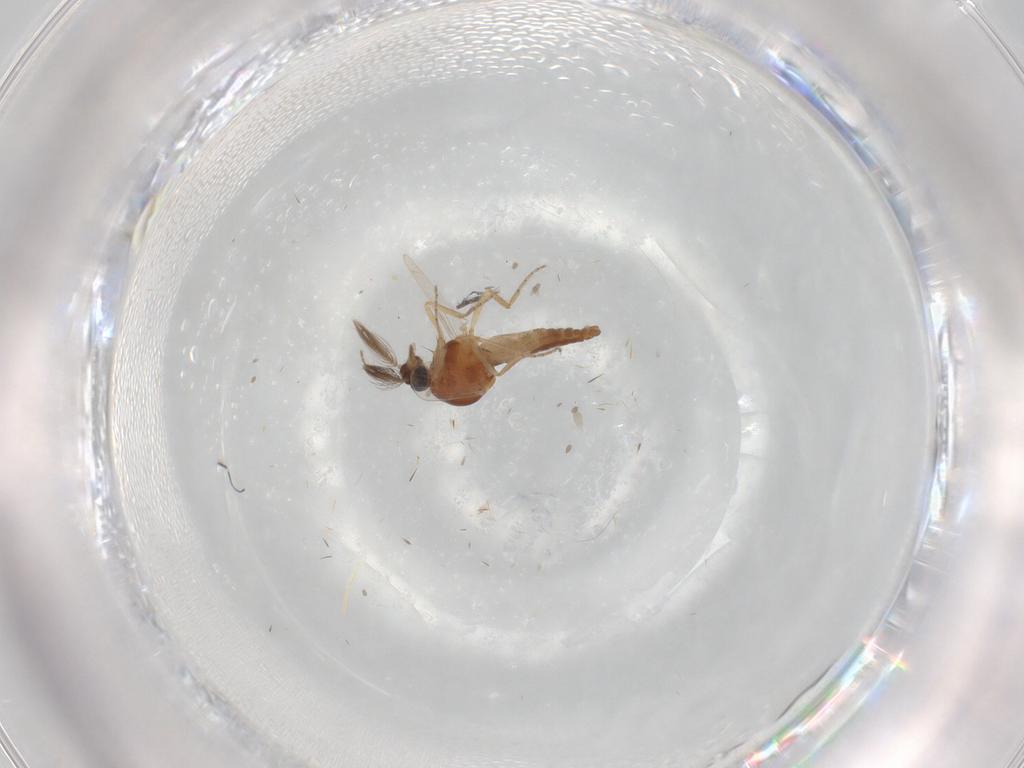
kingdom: Animalia
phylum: Arthropoda
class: Insecta
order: Diptera
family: Ceratopogonidae
